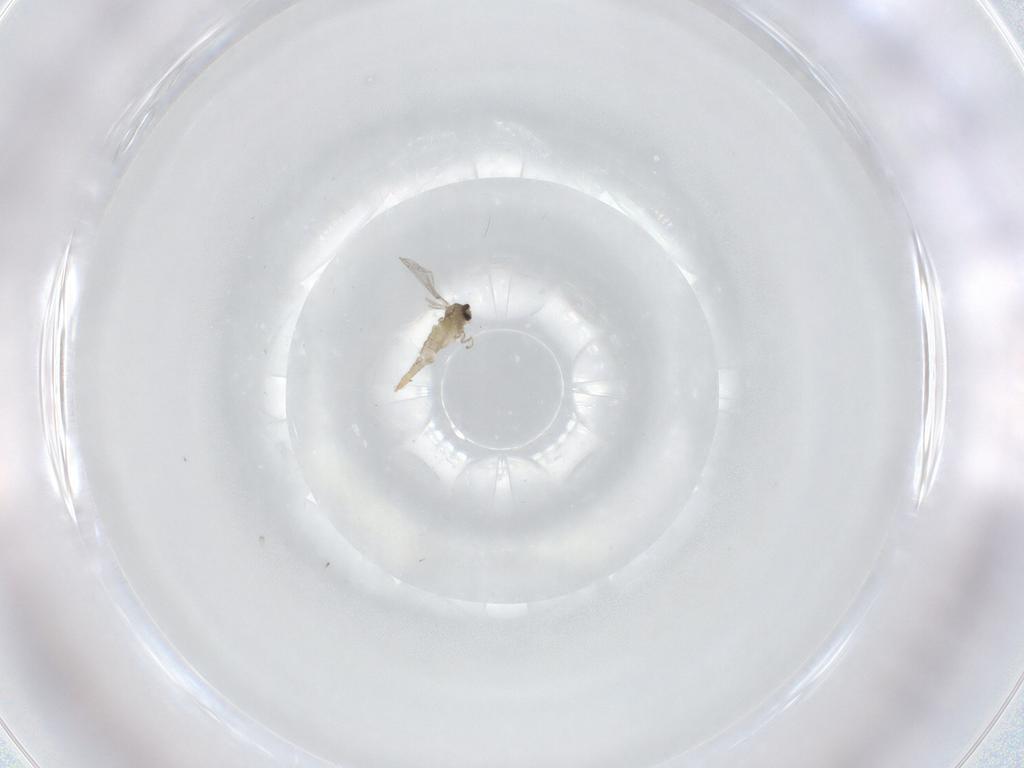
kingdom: Animalia
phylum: Arthropoda
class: Insecta
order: Diptera
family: Cecidomyiidae
